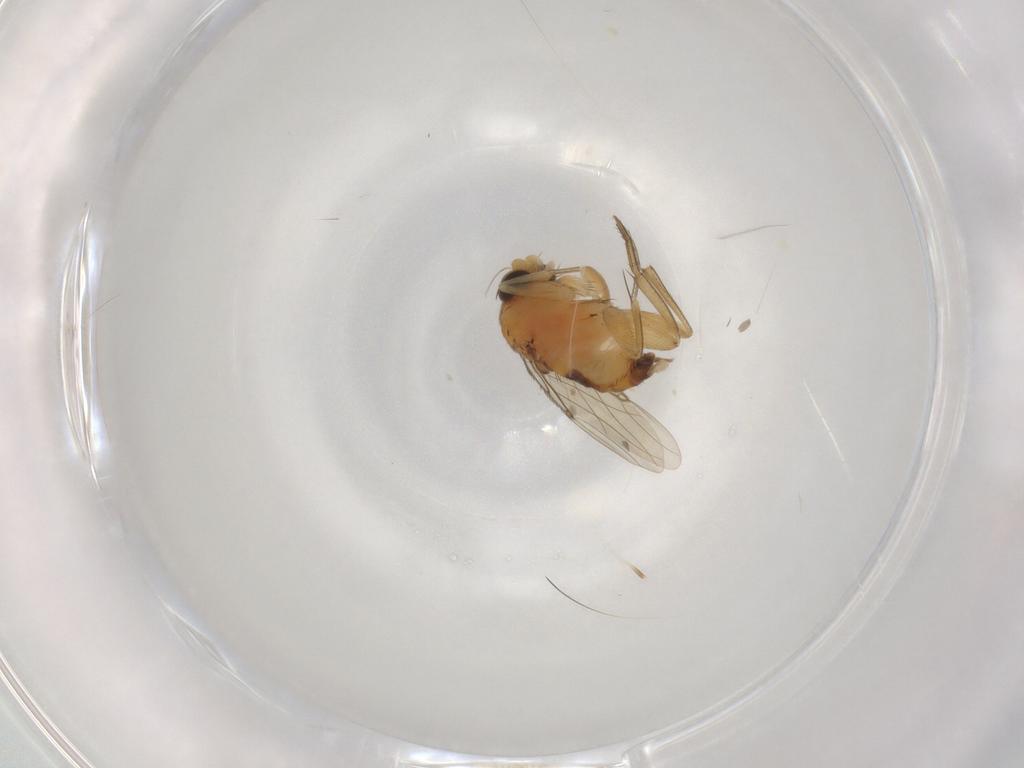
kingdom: Animalia
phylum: Arthropoda
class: Insecta
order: Diptera
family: Phoridae
